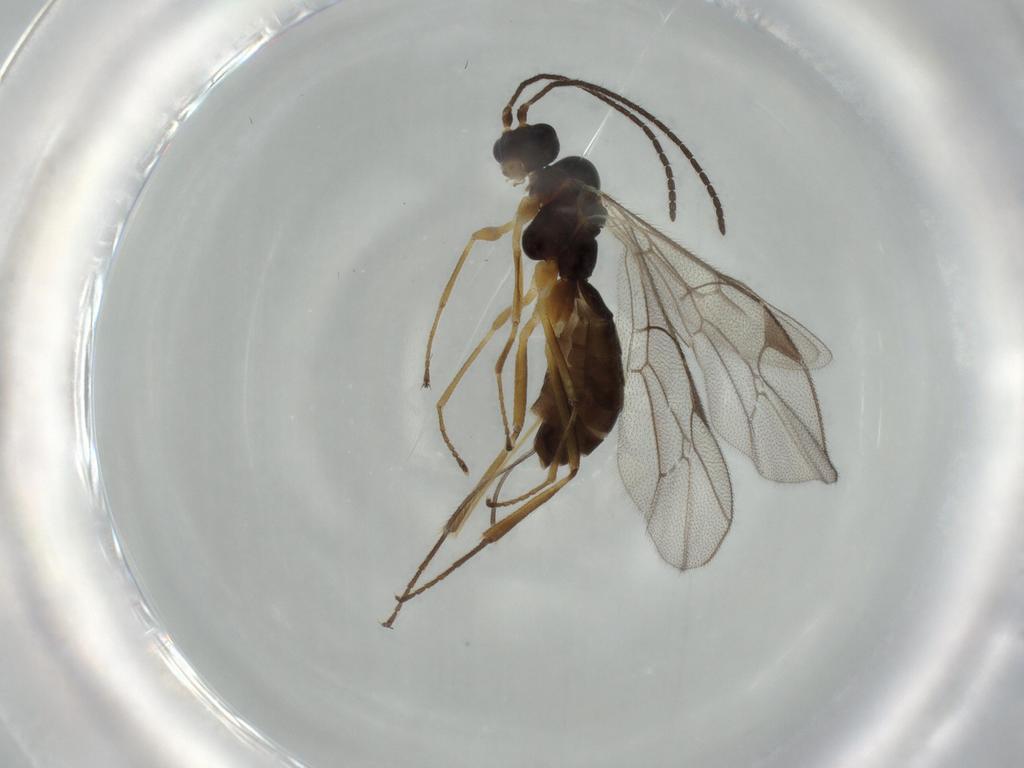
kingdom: Animalia
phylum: Arthropoda
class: Insecta
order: Hymenoptera
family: Ichneumonidae
